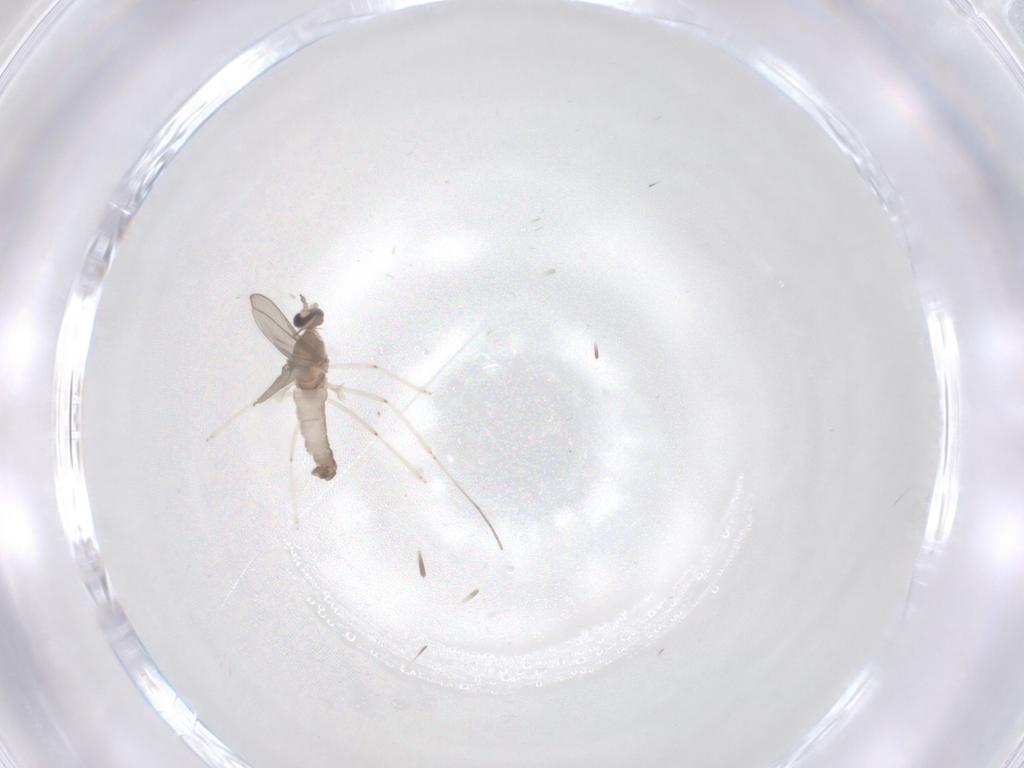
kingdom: Animalia
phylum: Arthropoda
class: Insecta
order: Diptera
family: Cecidomyiidae
